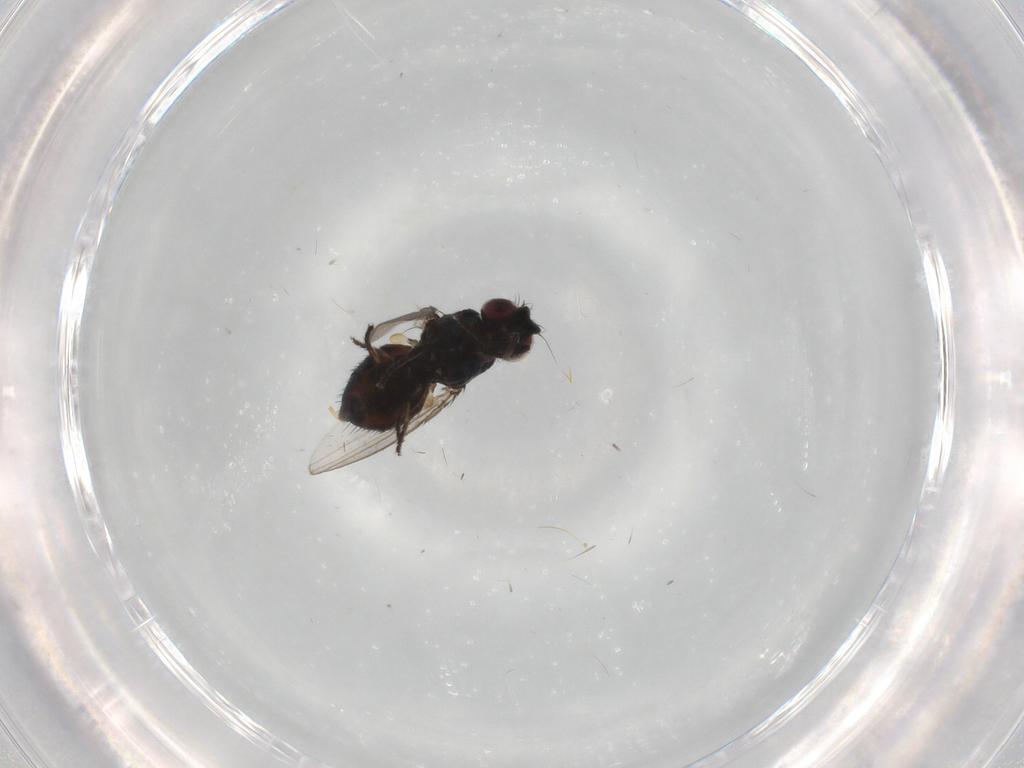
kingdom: Animalia
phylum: Arthropoda
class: Insecta
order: Diptera
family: Milichiidae
